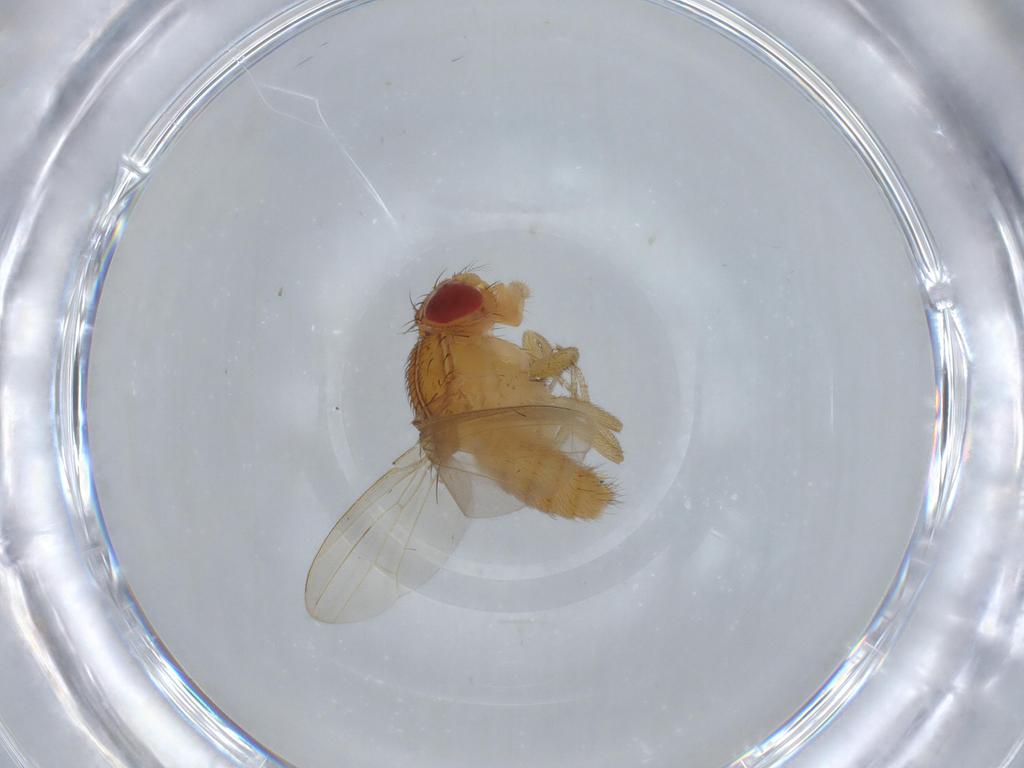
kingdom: Animalia
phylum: Arthropoda
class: Insecta
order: Diptera
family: Drosophilidae
